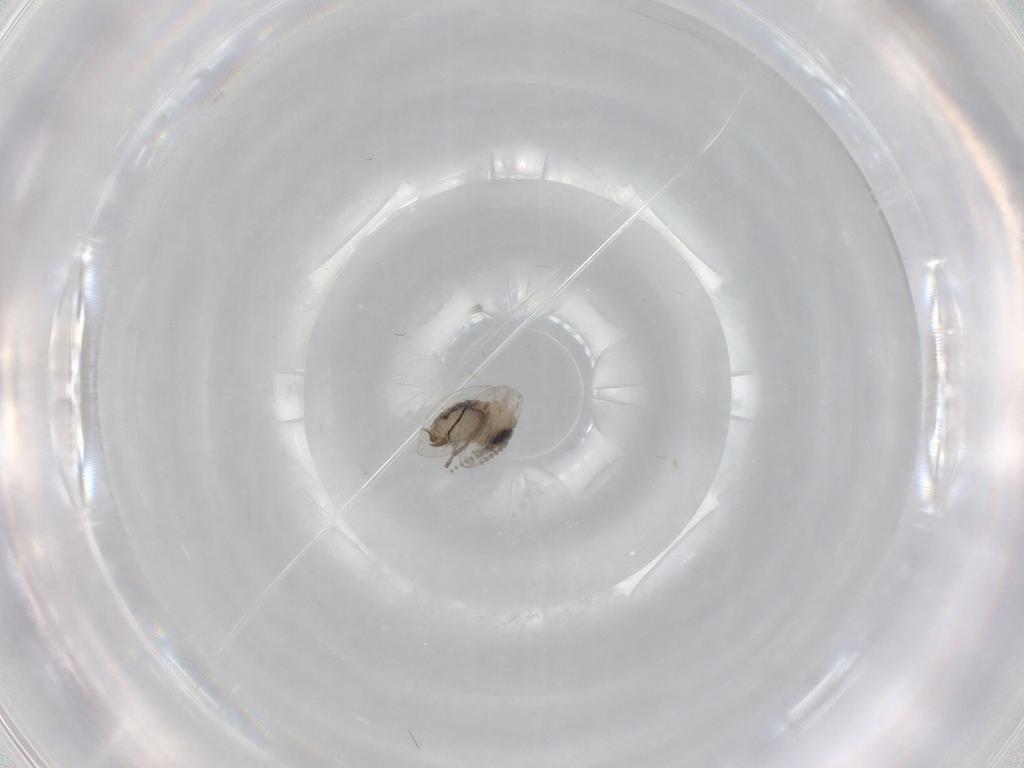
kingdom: Animalia
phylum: Arthropoda
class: Insecta
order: Diptera
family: Psychodidae
